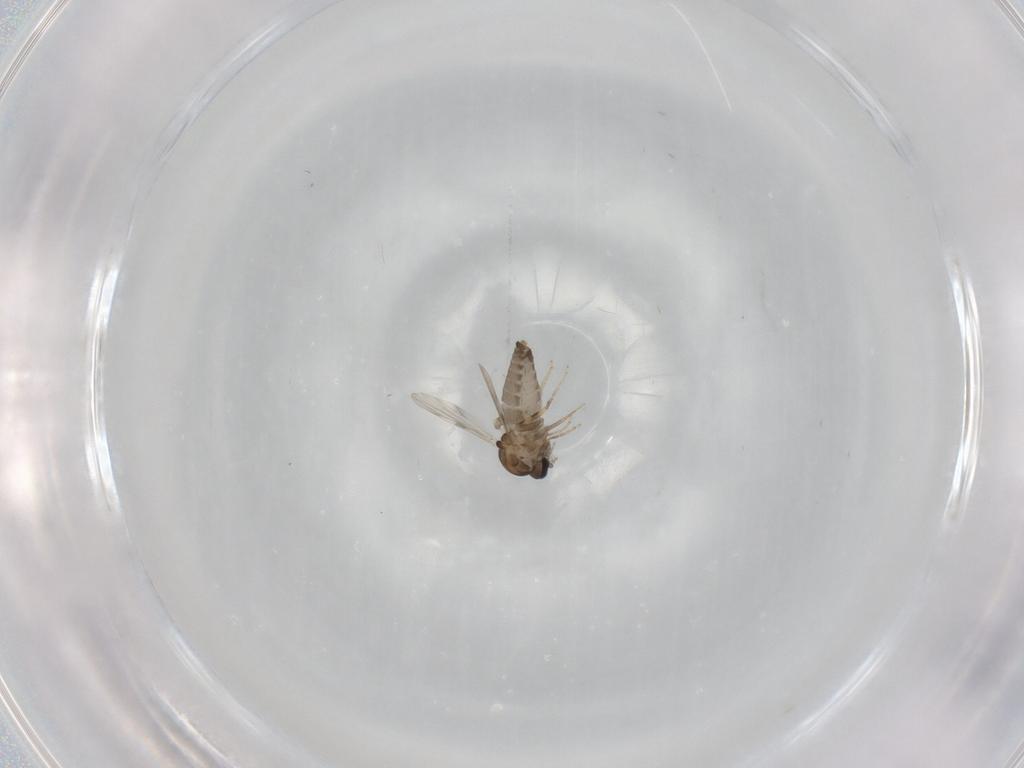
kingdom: Animalia
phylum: Arthropoda
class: Insecta
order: Diptera
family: Ceratopogonidae
